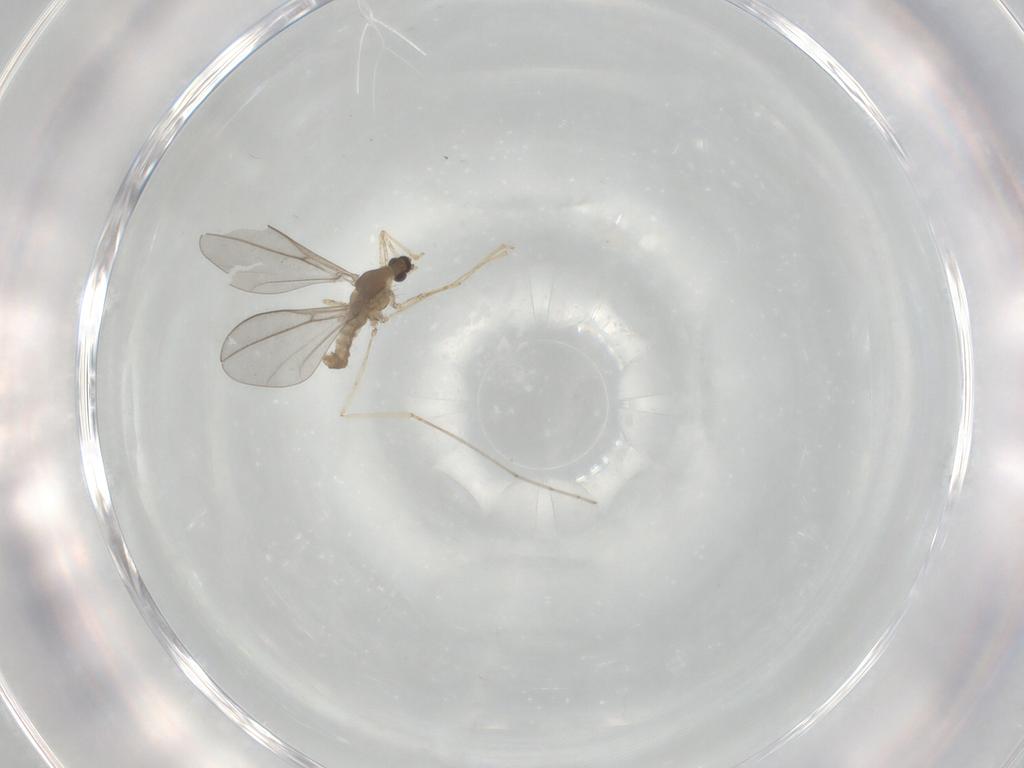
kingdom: Animalia
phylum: Arthropoda
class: Insecta
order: Diptera
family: Cecidomyiidae
